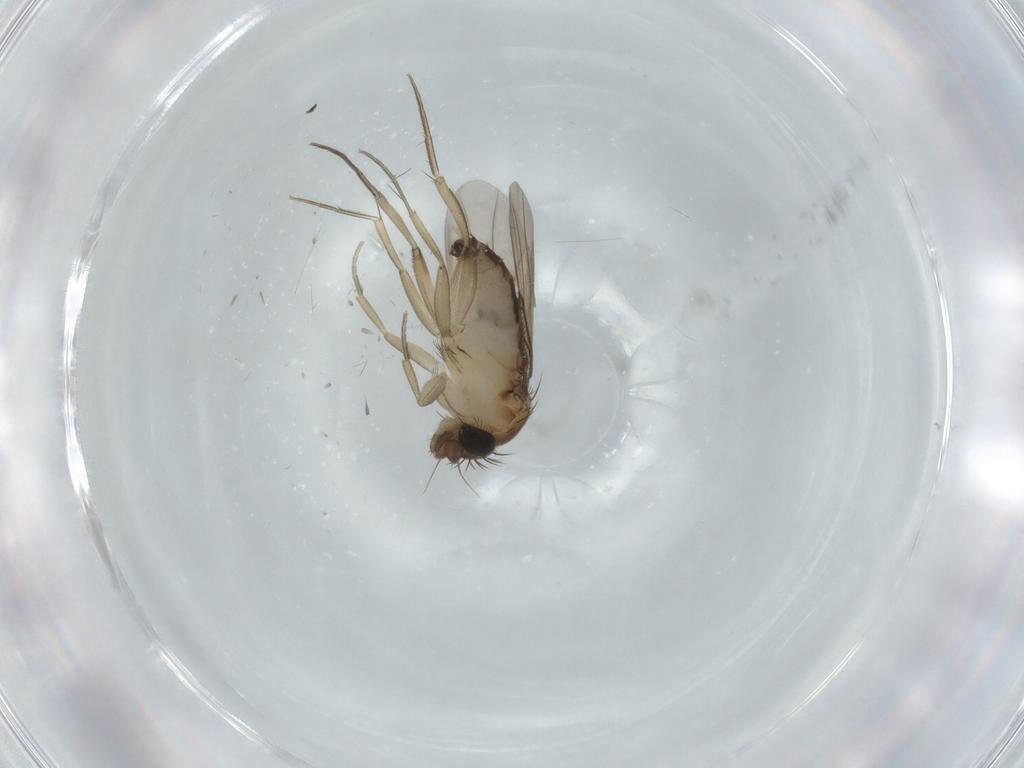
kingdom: Animalia
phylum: Arthropoda
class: Insecta
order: Diptera
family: Phoridae
